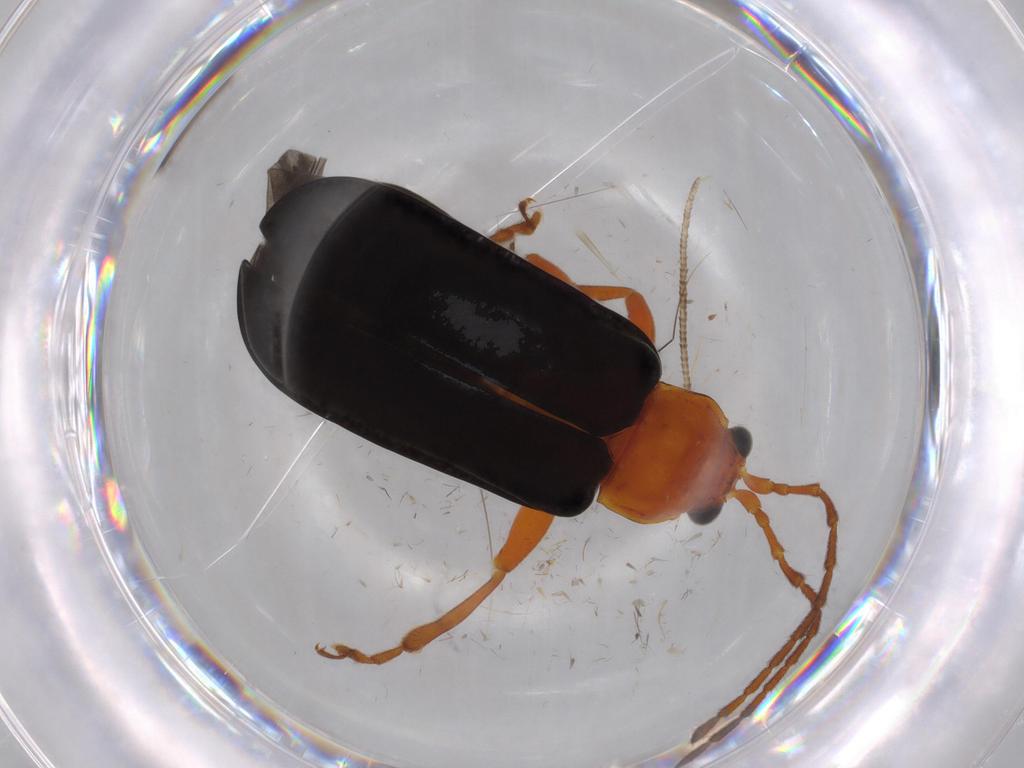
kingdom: Animalia
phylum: Arthropoda
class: Insecta
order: Coleoptera
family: Chrysomelidae
